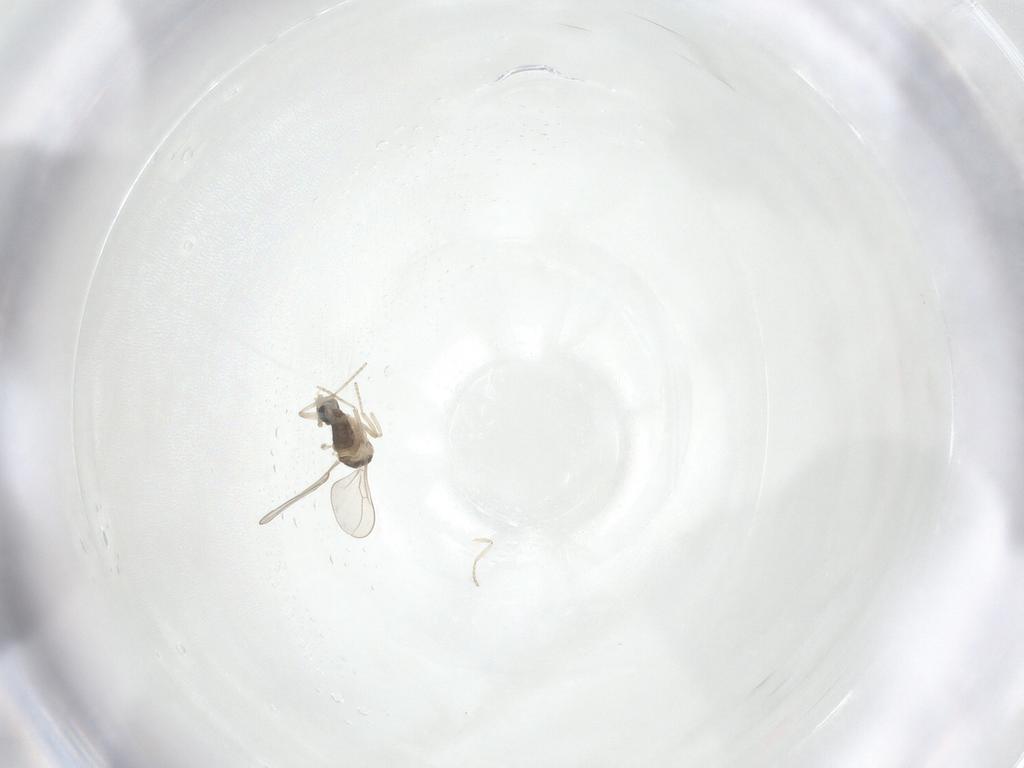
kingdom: Animalia
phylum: Arthropoda
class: Insecta
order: Diptera
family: Cecidomyiidae
